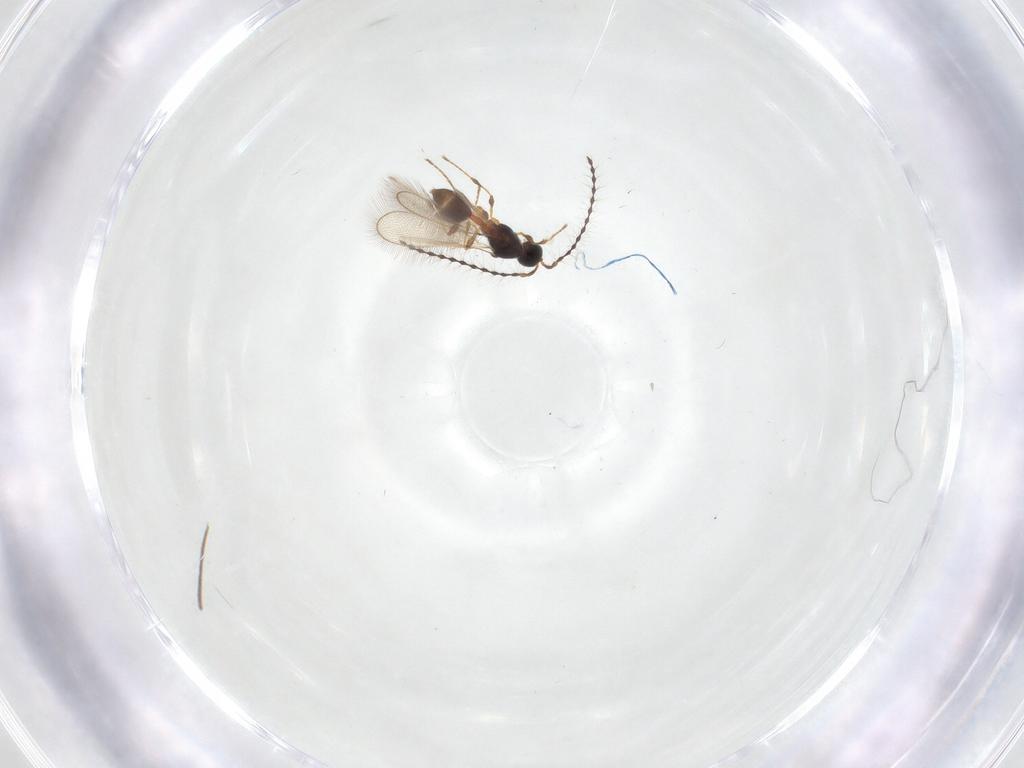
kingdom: Animalia
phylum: Arthropoda
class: Insecta
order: Hymenoptera
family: Diapriidae
